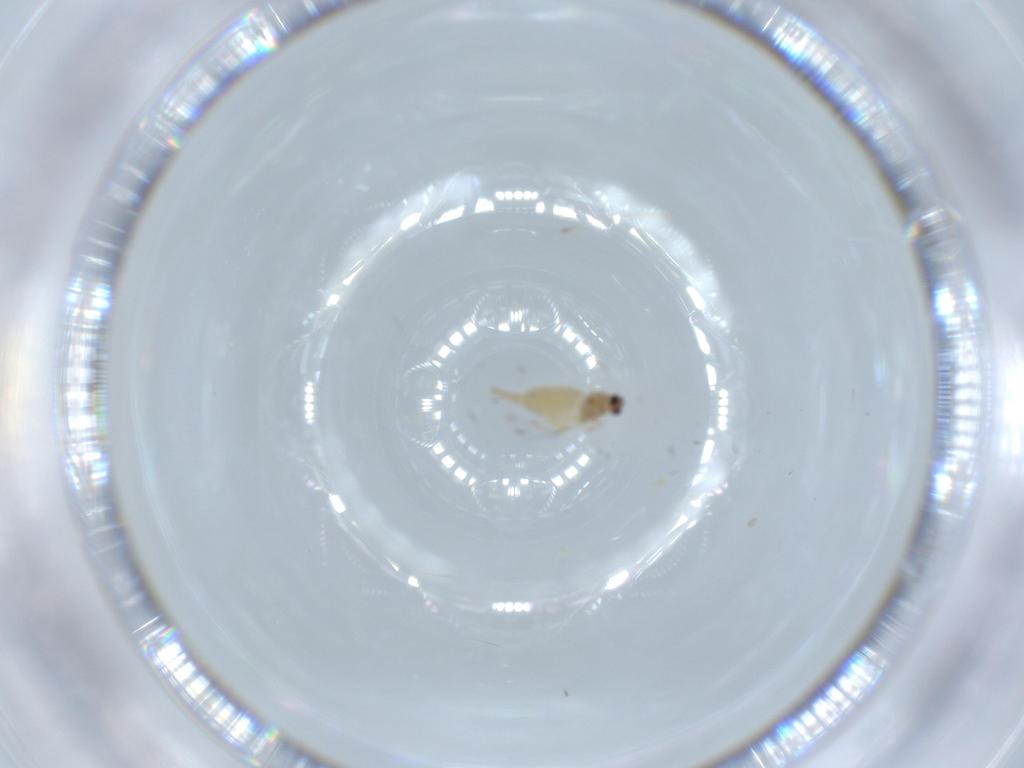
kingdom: Animalia
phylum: Arthropoda
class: Insecta
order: Diptera
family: Cecidomyiidae
